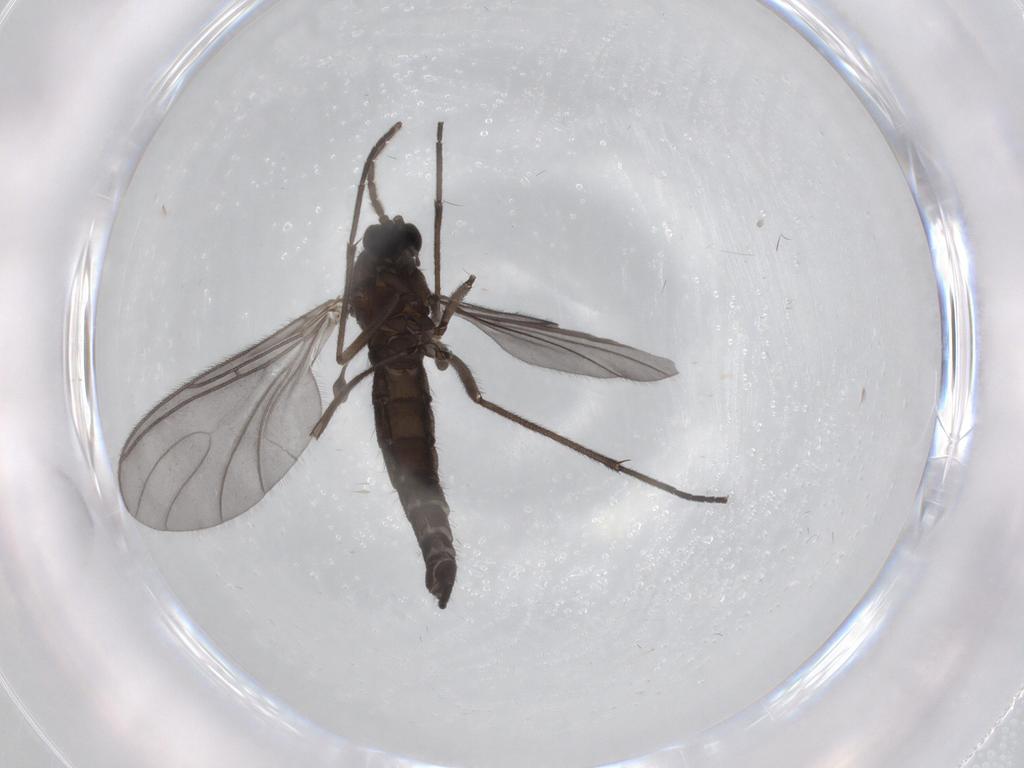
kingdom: Animalia
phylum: Arthropoda
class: Insecta
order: Diptera
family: Sciaridae
